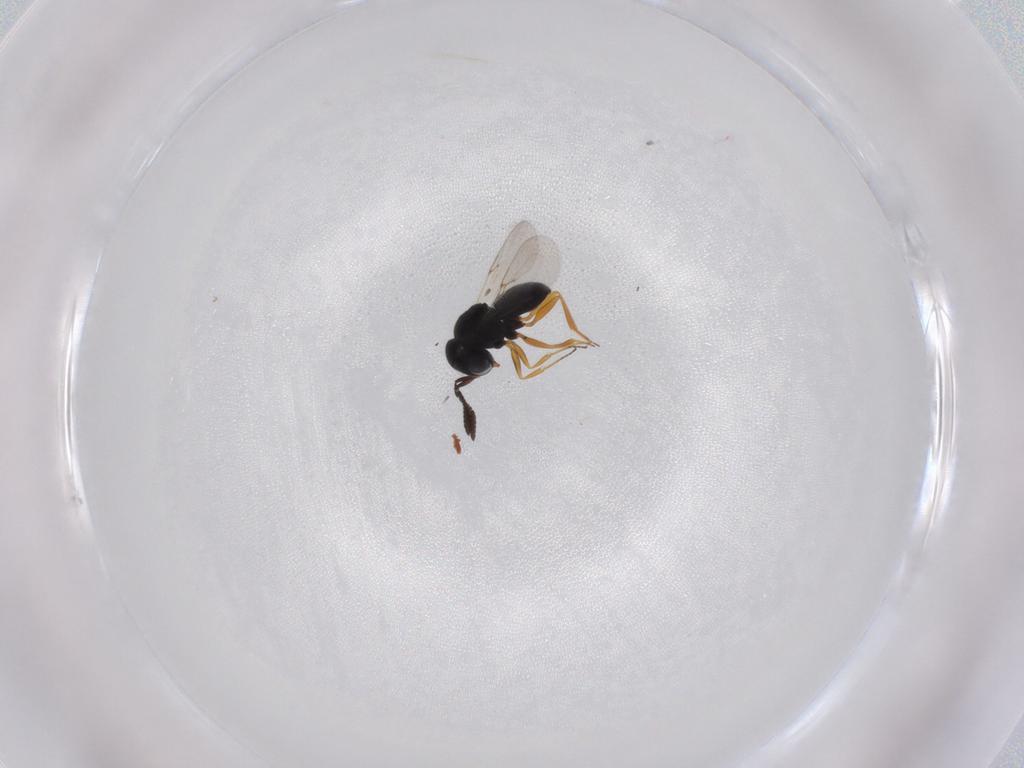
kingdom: Animalia
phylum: Arthropoda
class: Insecta
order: Hymenoptera
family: Scelionidae
